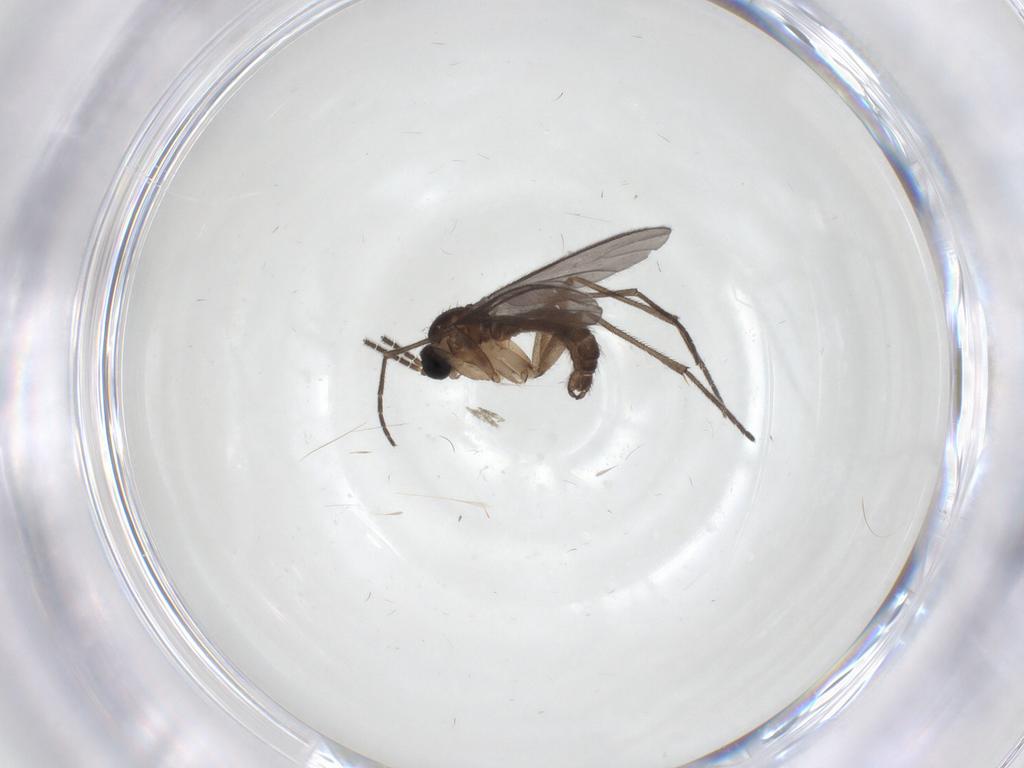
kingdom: Animalia
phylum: Arthropoda
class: Insecta
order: Diptera
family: Sciaridae
